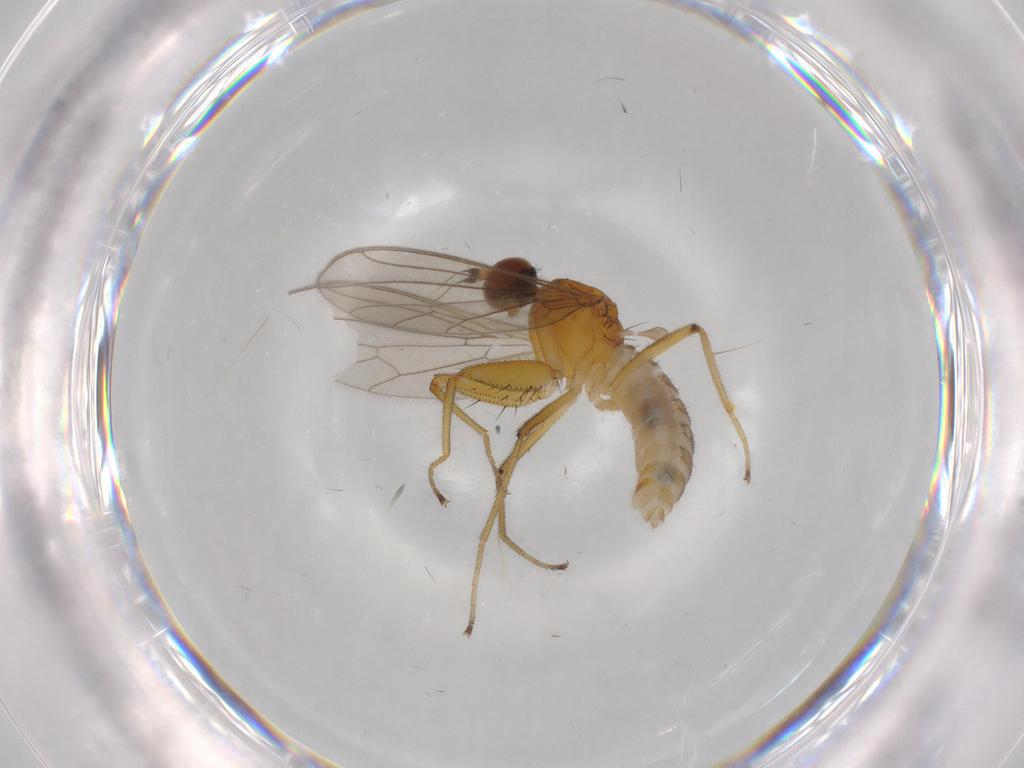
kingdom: Animalia
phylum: Arthropoda
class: Insecta
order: Diptera
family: Empididae
